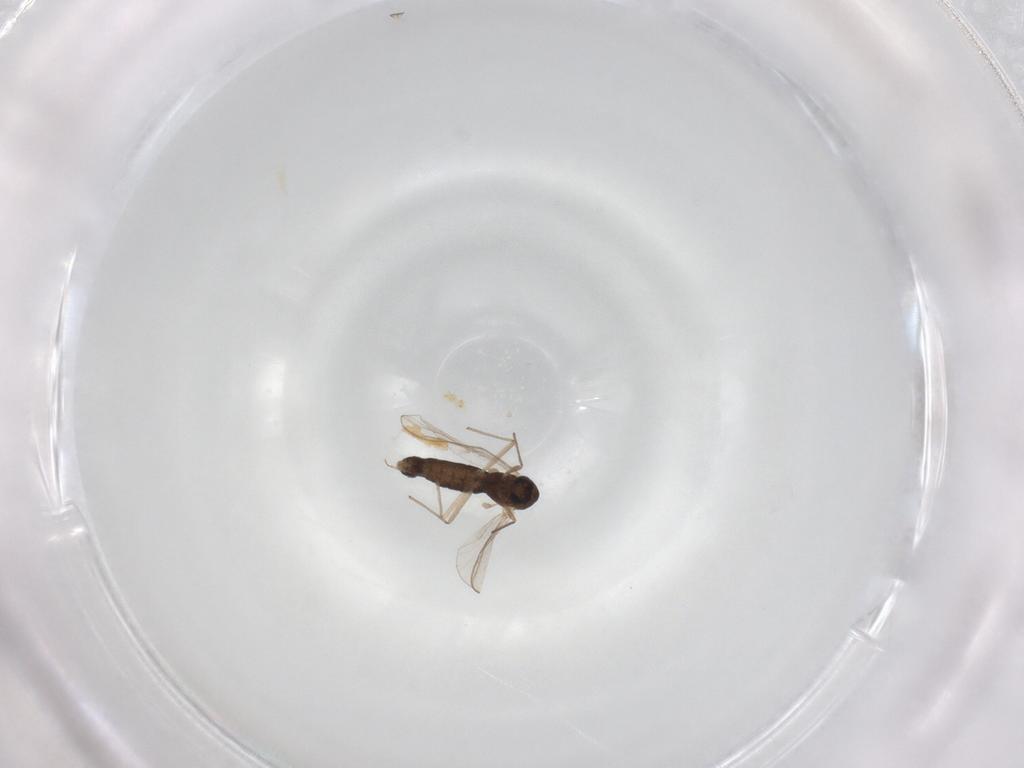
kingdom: Animalia
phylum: Arthropoda
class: Insecta
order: Diptera
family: Chironomidae
